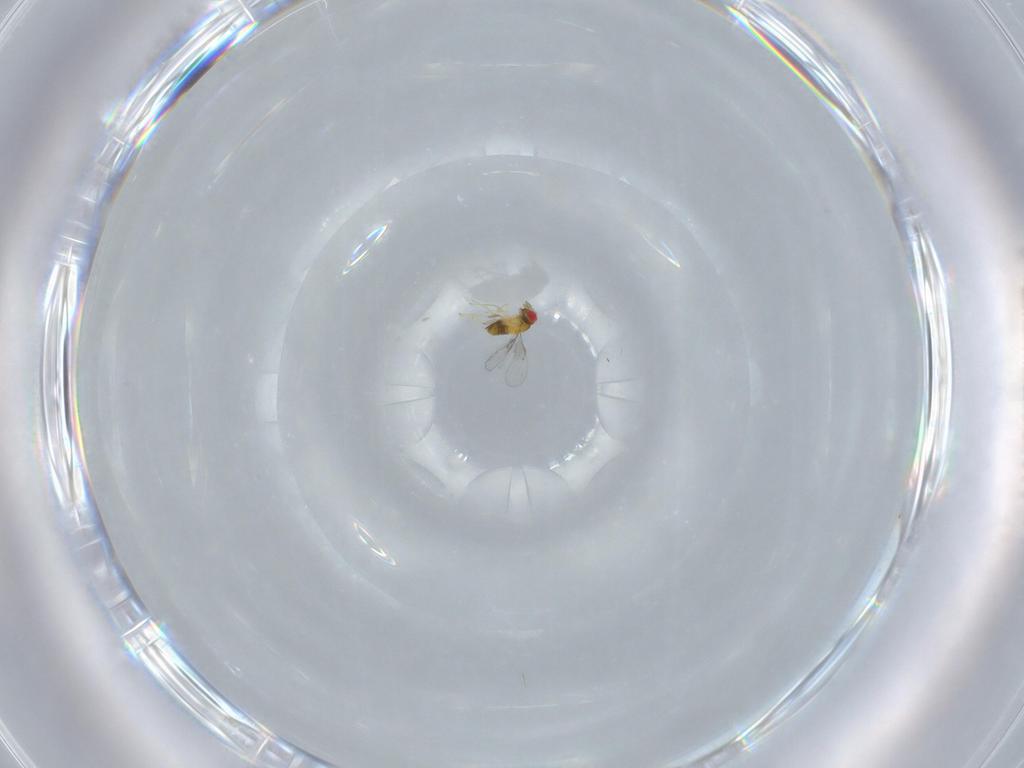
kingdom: Animalia
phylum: Arthropoda
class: Insecta
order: Hymenoptera
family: Trichogrammatidae
